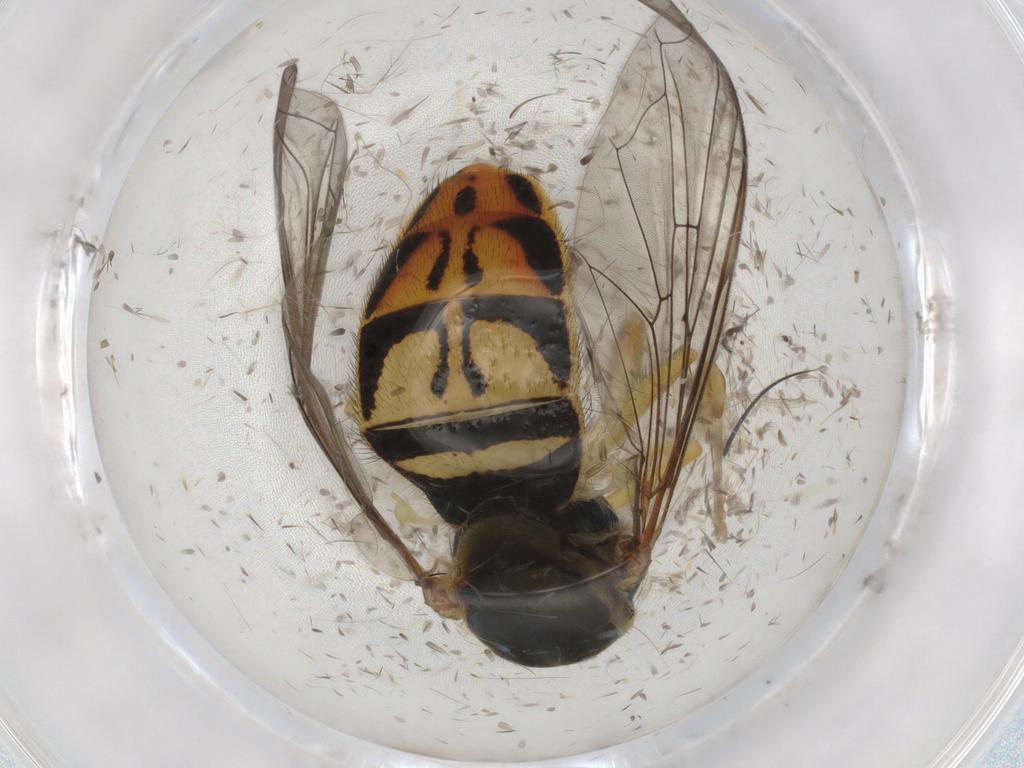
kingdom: Animalia
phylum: Arthropoda
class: Insecta
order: Diptera
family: Syrphidae
